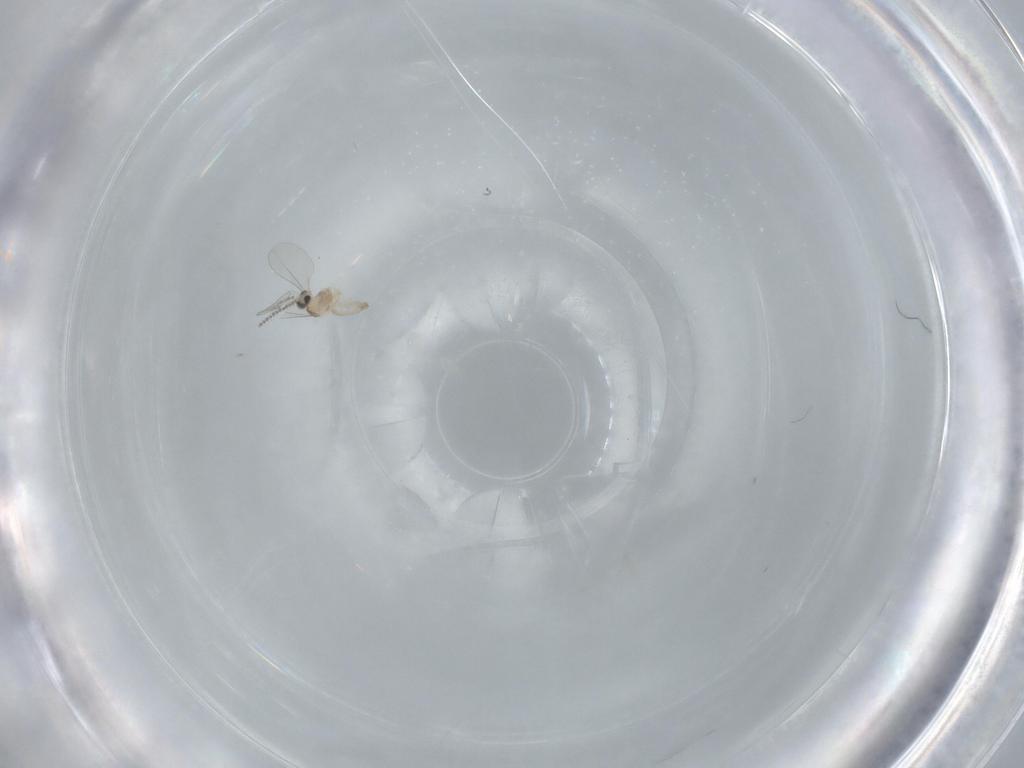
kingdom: Animalia
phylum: Arthropoda
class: Insecta
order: Diptera
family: Cecidomyiidae
